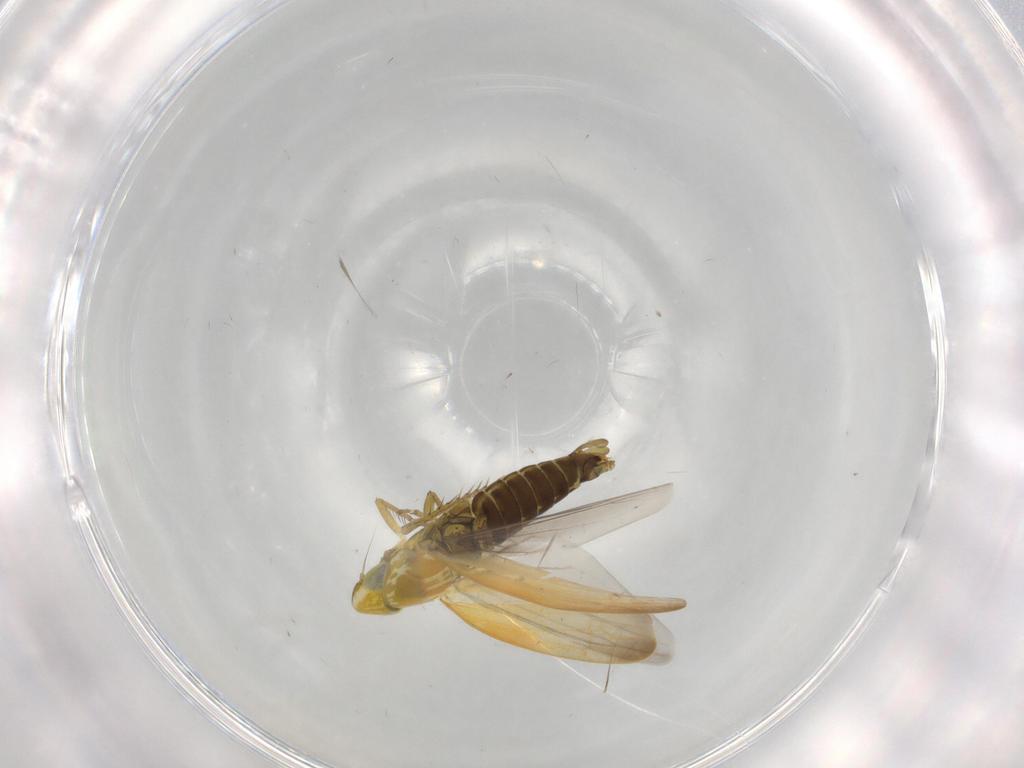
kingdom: Animalia
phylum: Arthropoda
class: Insecta
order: Hemiptera
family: Cicadellidae
